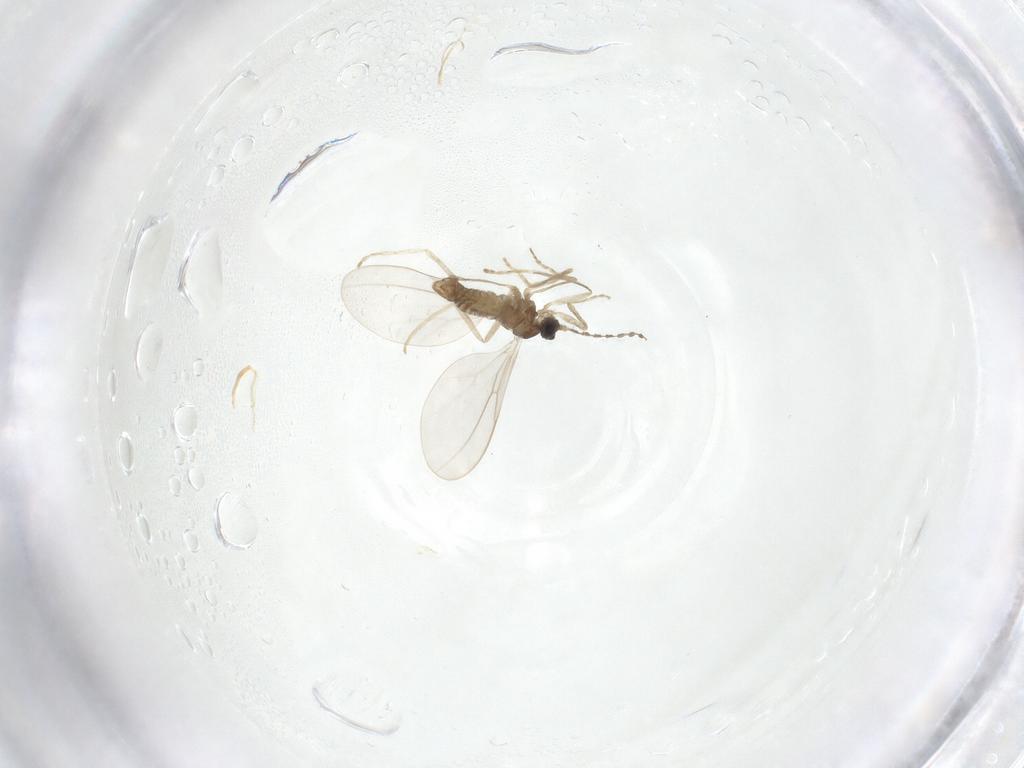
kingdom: Animalia
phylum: Arthropoda
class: Insecta
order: Diptera
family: Cecidomyiidae
